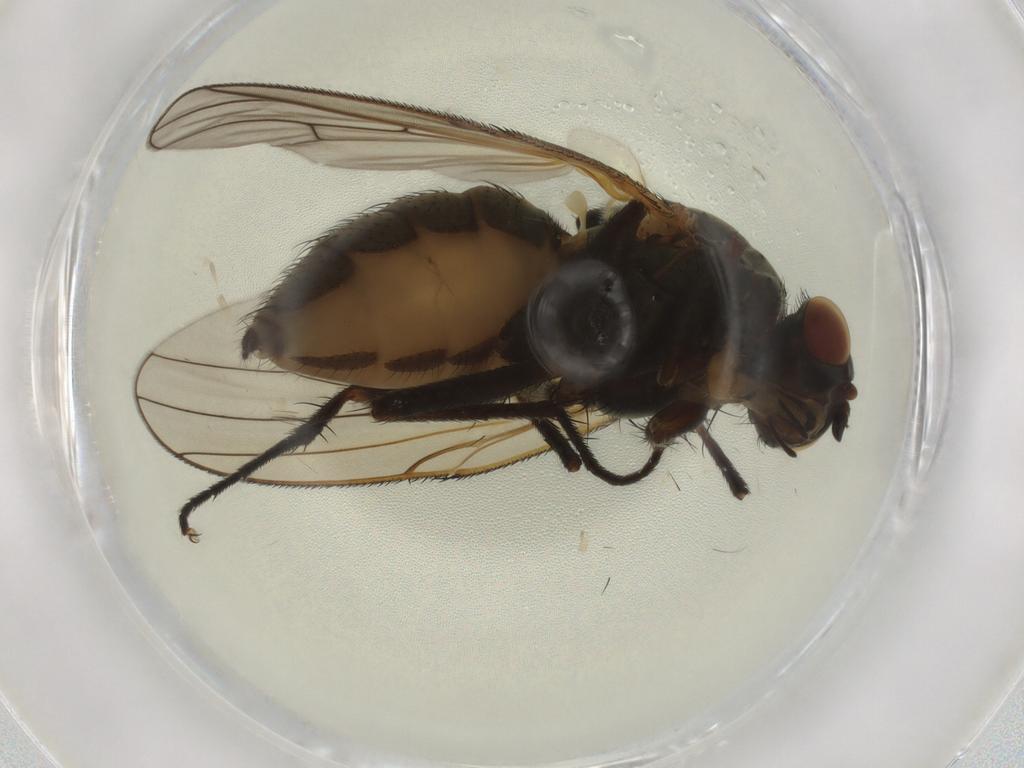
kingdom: Animalia
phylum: Arthropoda
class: Insecta
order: Diptera
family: Anthomyiidae
